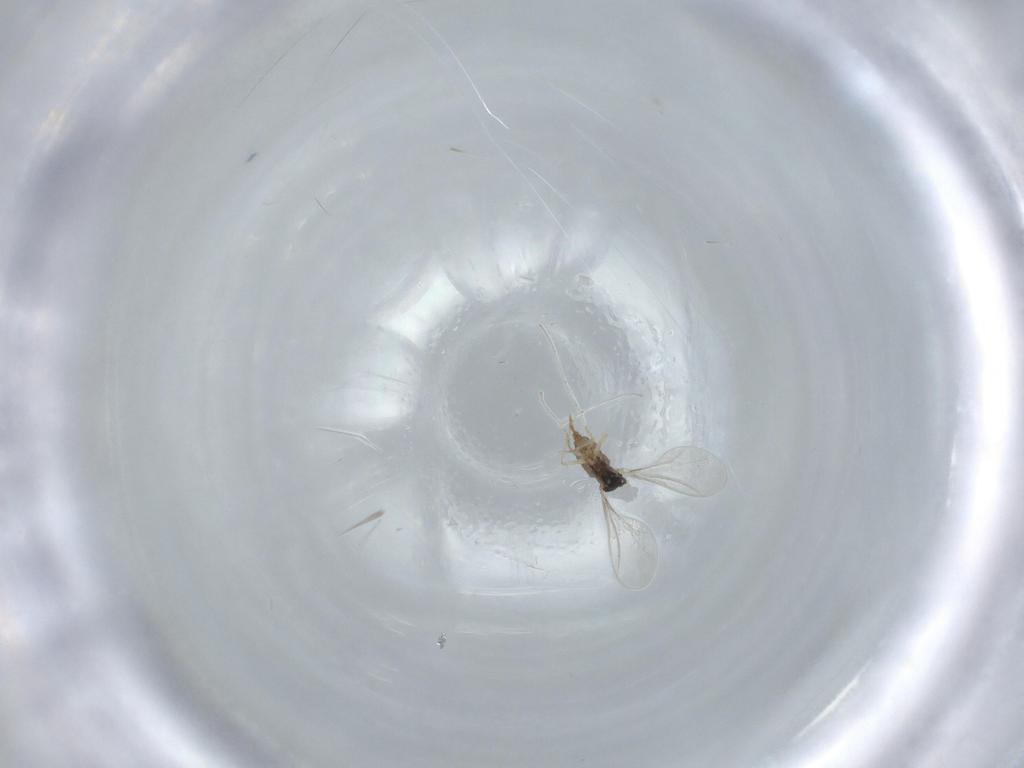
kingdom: Animalia
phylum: Arthropoda
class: Insecta
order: Diptera
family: Cecidomyiidae
